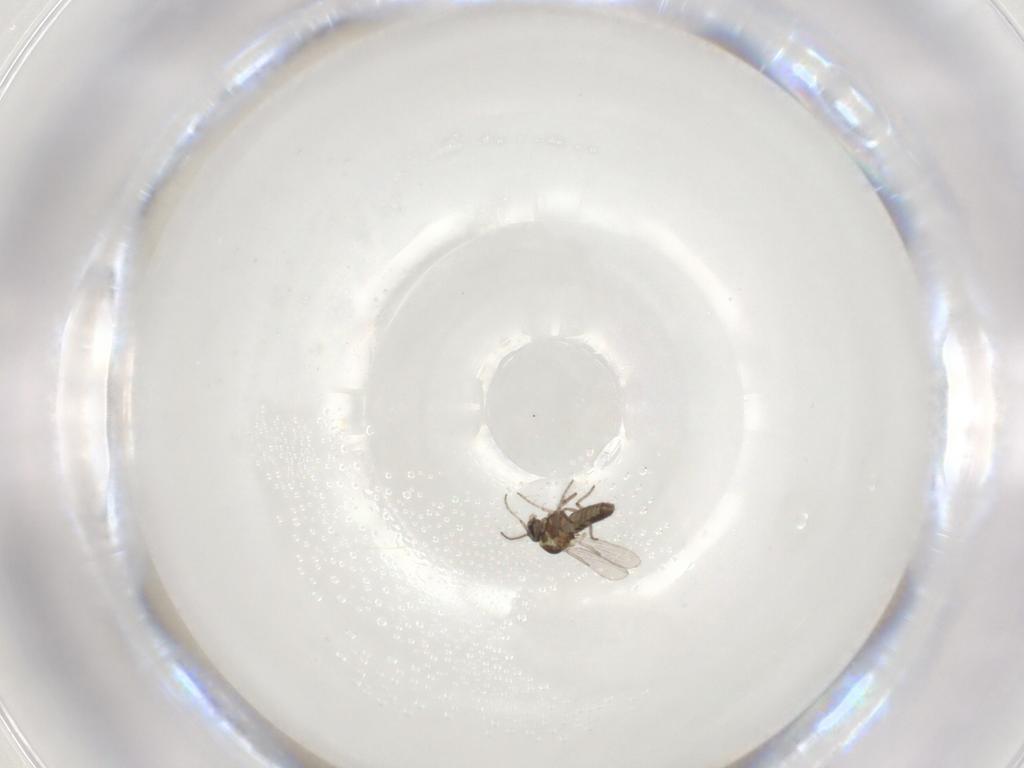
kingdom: Animalia
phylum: Arthropoda
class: Insecta
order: Diptera
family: Ceratopogonidae
